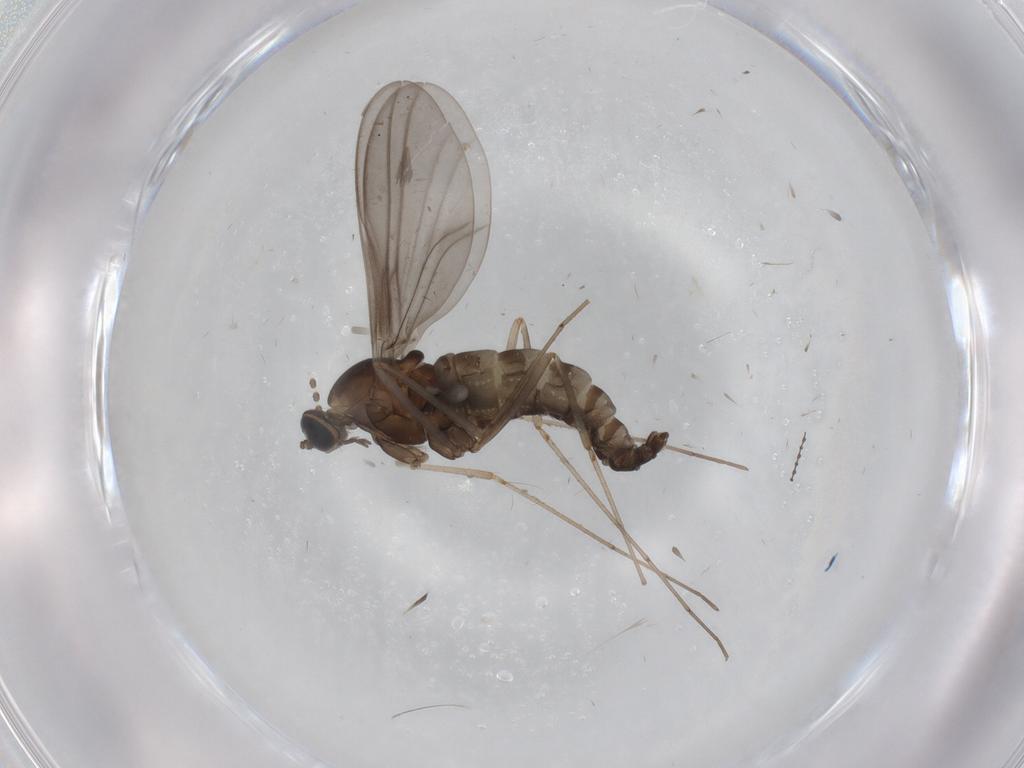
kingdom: Animalia
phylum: Arthropoda
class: Insecta
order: Diptera
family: Cecidomyiidae
